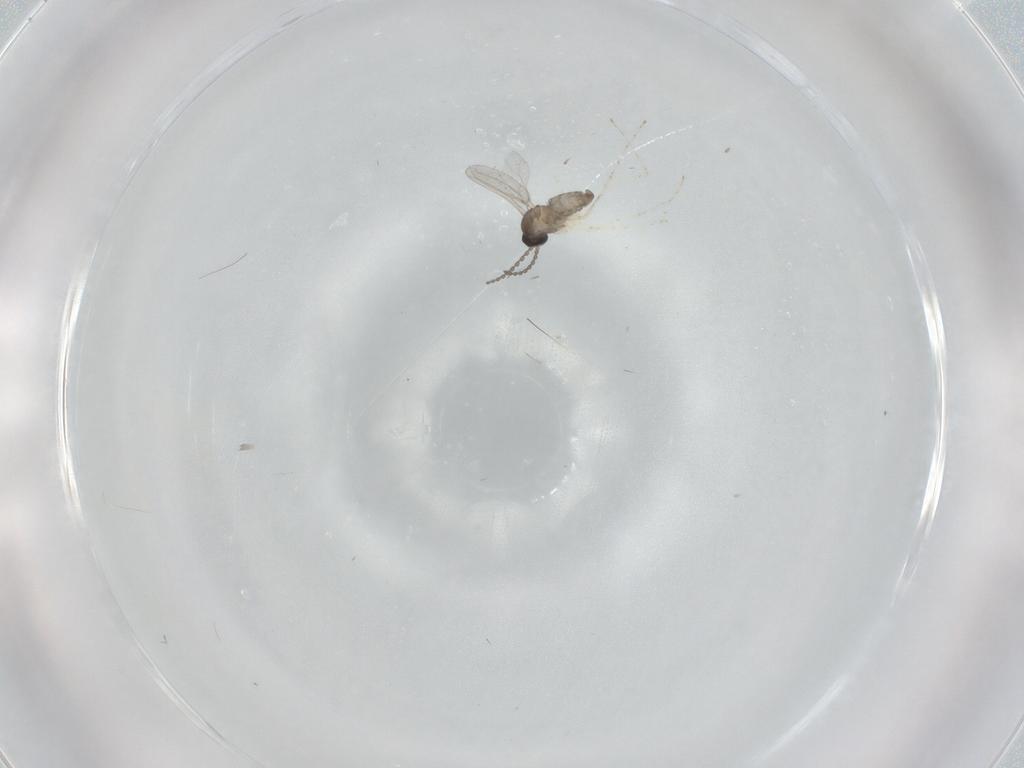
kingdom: Animalia
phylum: Arthropoda
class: Insecta
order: Diptera
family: Cecidomyiidae
